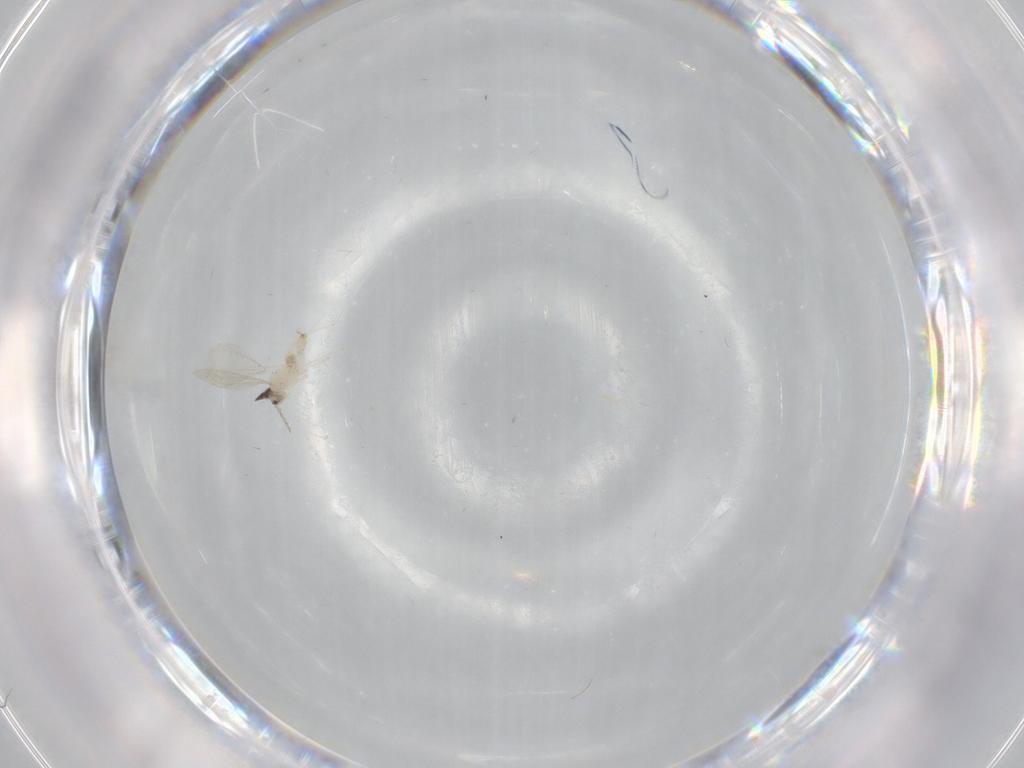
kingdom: Animalia
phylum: Arthropoda
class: Insecta
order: Diptera
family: Cecidomyiidae
